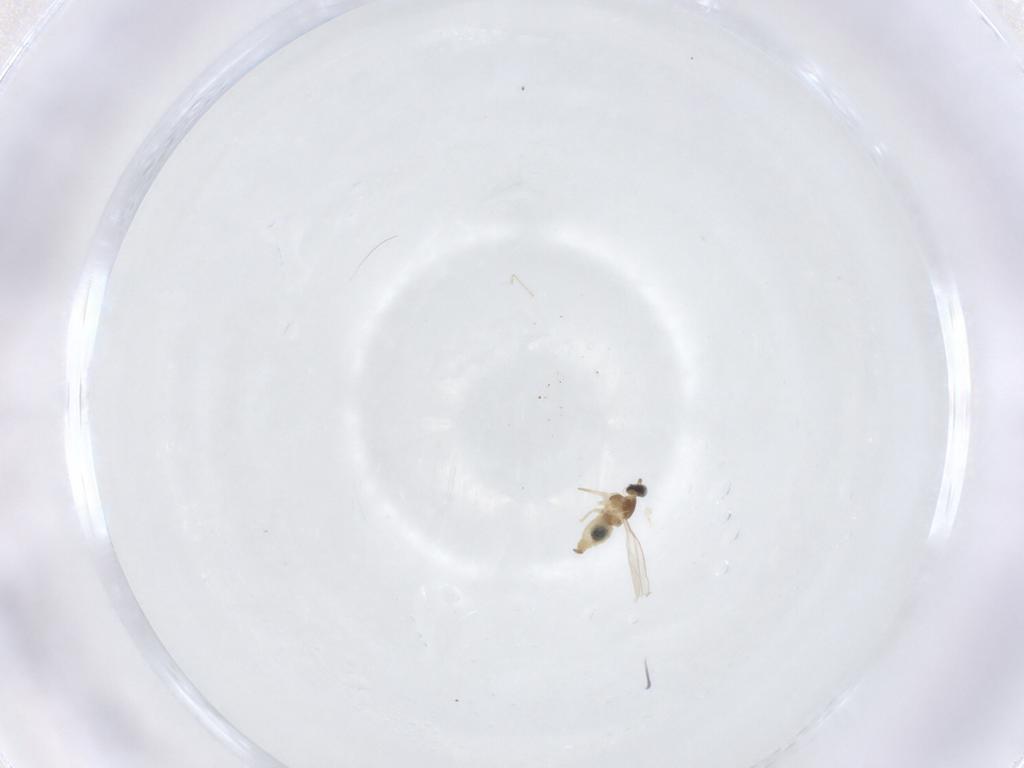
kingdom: Animalia
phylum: Arthropoda
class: Insecta
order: Diptera
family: Cecidomyiidae
